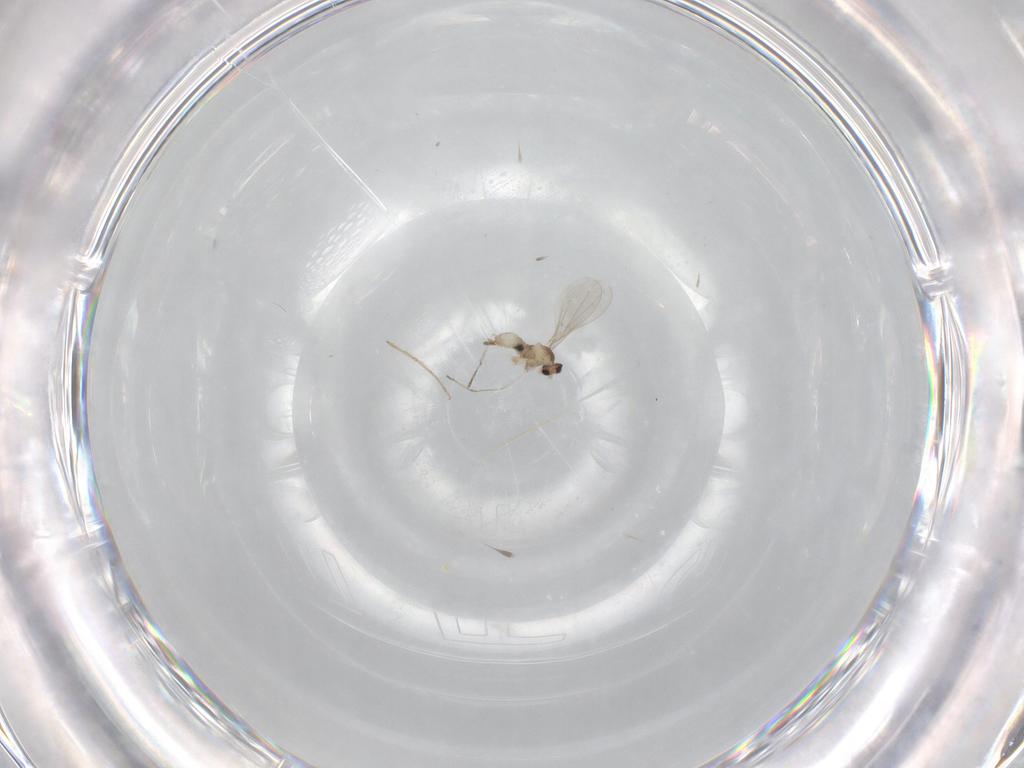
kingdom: Animalia
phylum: Arthropoda
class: Insecta
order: Diptera
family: Cecidomyiidae
